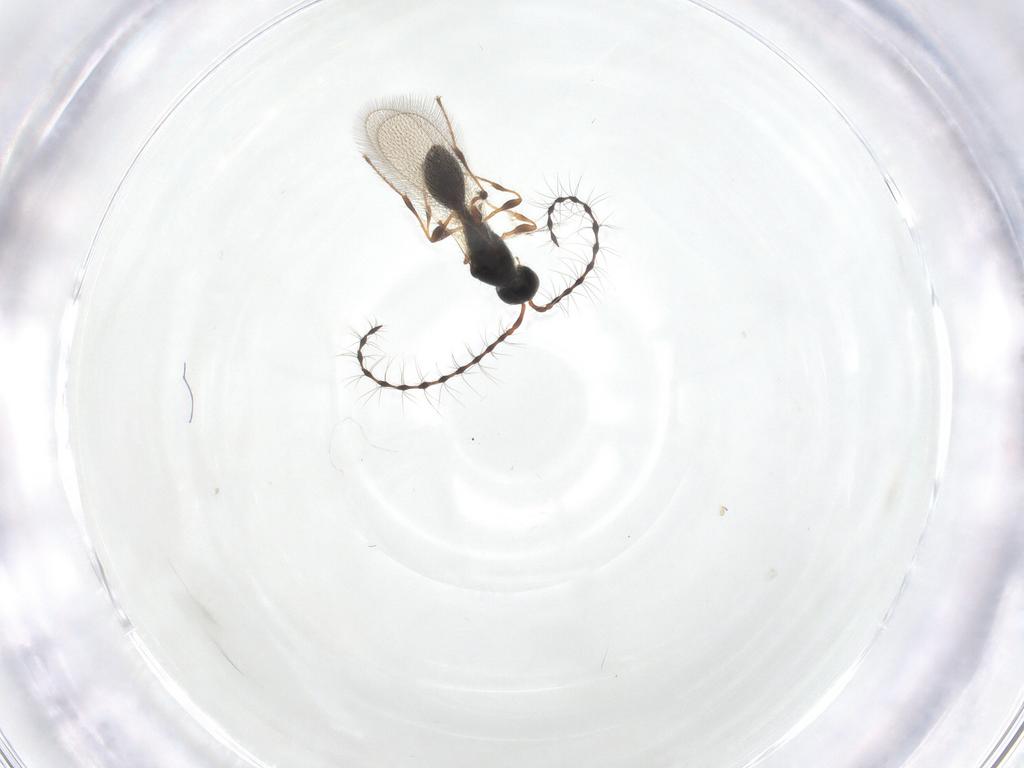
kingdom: Animalia
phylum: Arthropoda
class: Insecta
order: Hymenoptera
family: Diapriidae
